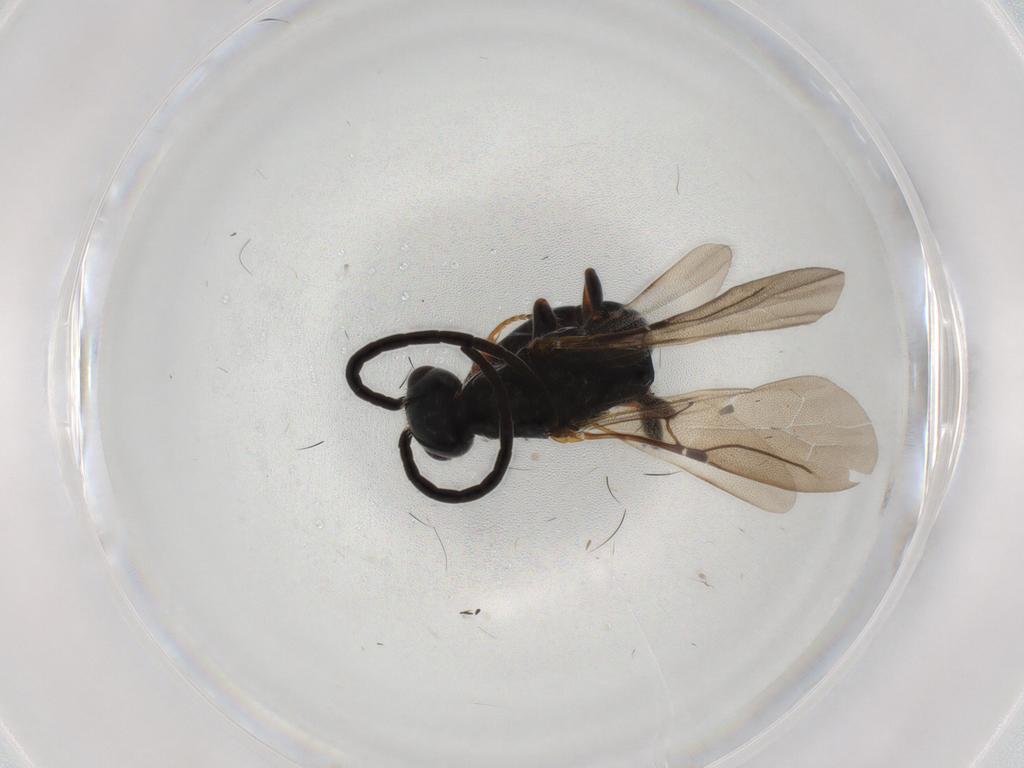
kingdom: Animalia
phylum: Arthropoda
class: Insecta
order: Hymenoptera
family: Bethylidae
